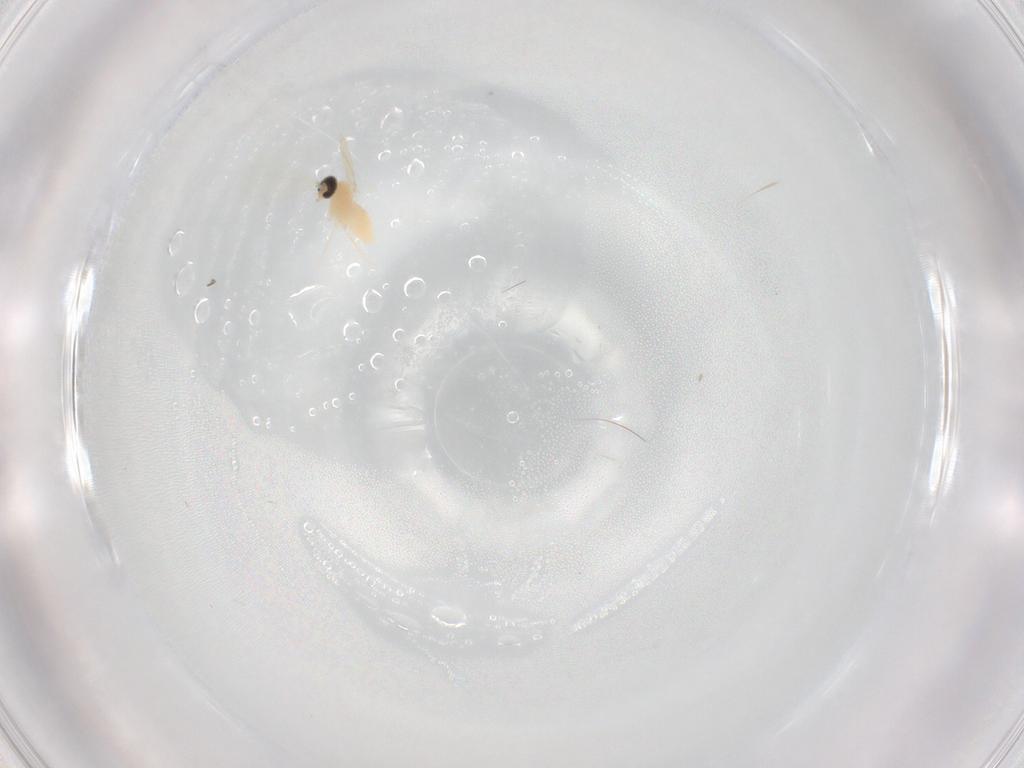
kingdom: Animalia
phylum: Arthropoda
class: Insecta
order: Diptera
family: Cecidomyiidae
